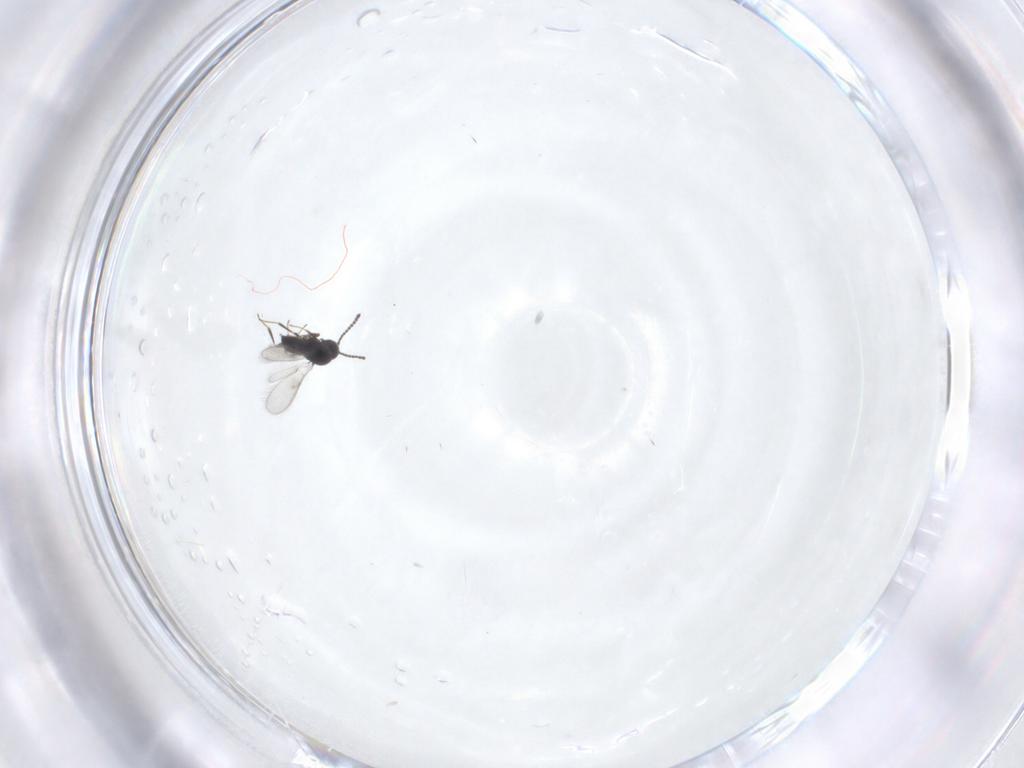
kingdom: Animalia
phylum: Arthropoda
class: Insecta
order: Hymenoptera
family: Scelionidae
